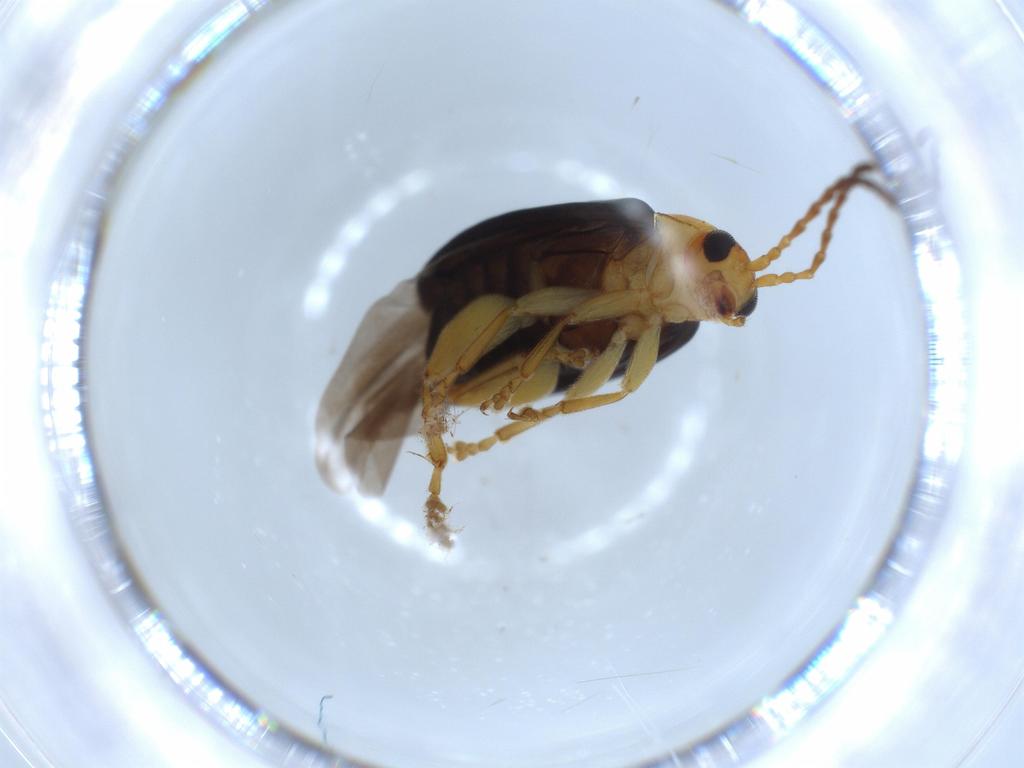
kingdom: Animalia
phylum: Arthropoda
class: Insecta
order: Coleoptera
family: Chrysomelidae
